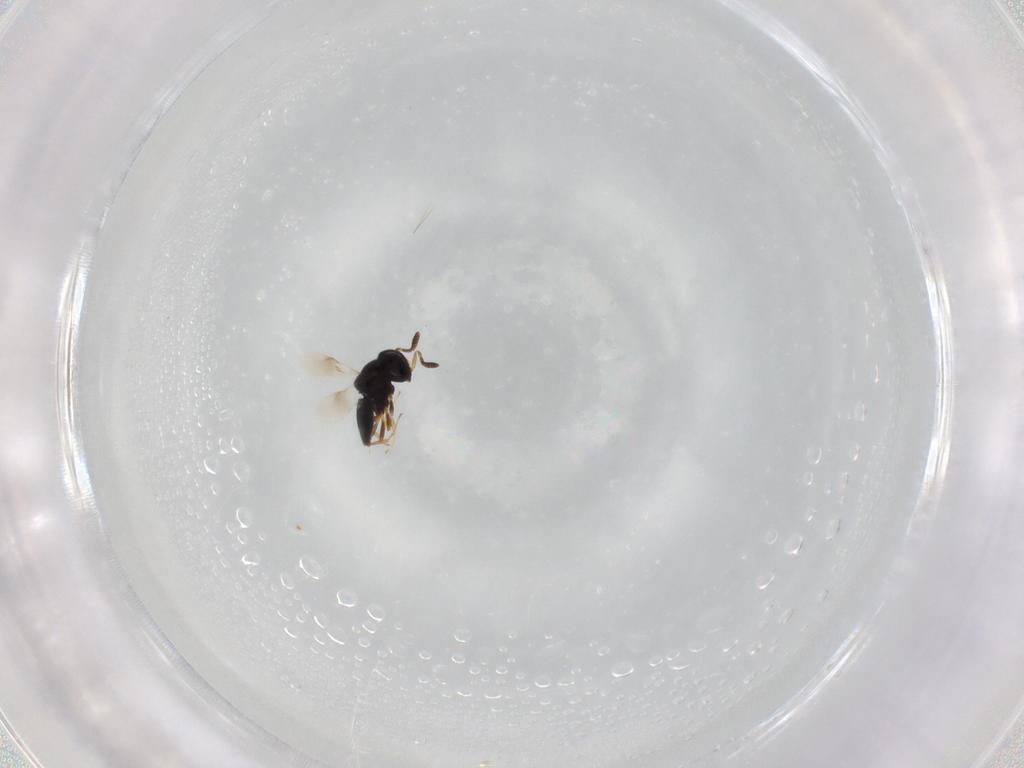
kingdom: Animalia
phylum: Arthropoda
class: Insecta
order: Hymenoptera
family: Scelionidae
